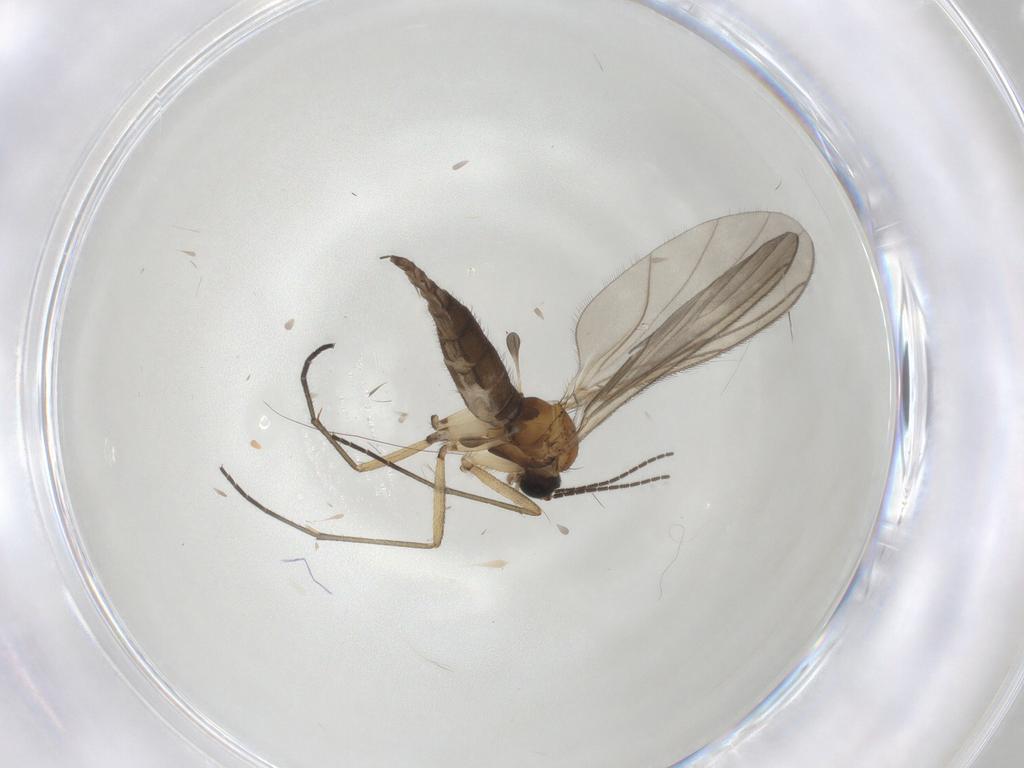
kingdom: Animalia
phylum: Arthropoda
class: Insecta
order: Diptera
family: Sciaridae
